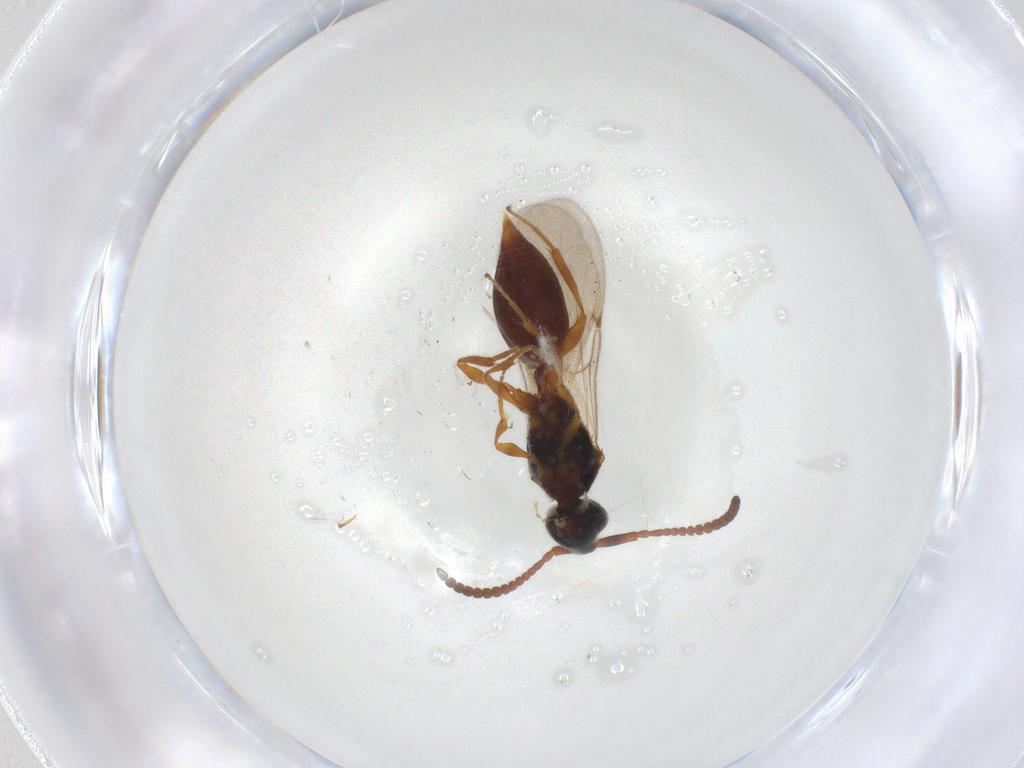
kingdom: Animalia
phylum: Arthropoda
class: Insecta
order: Hymenoptera
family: Diapriidae
